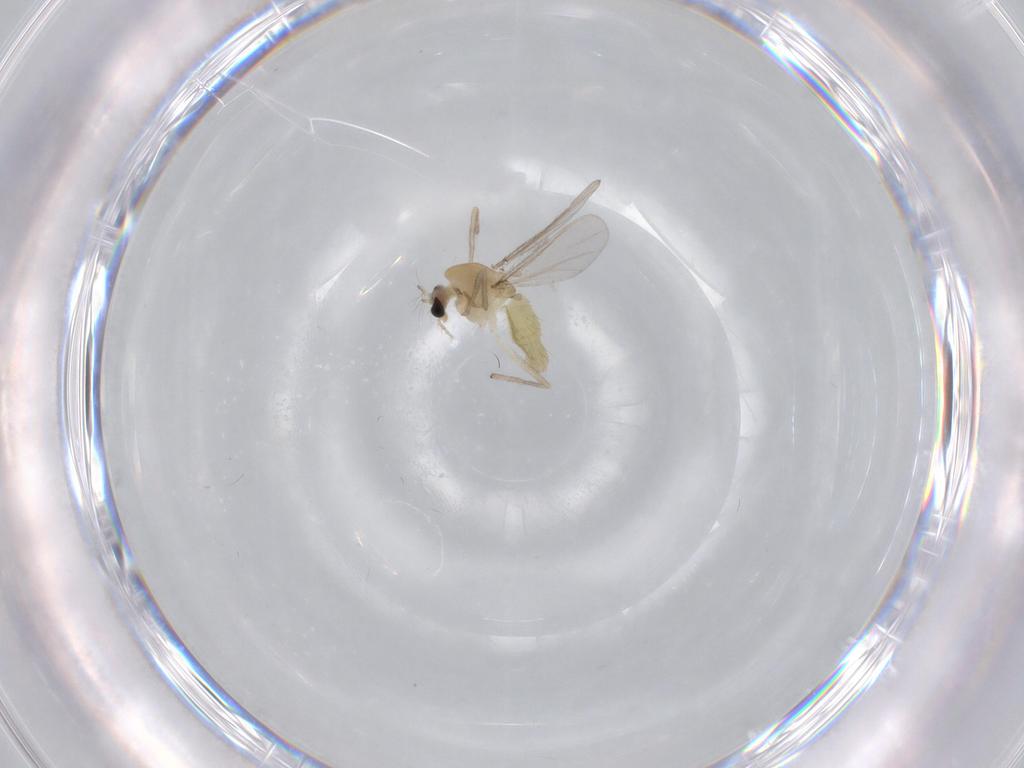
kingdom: Animalia
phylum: Arthropoda
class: Insecta
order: Diptera
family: Chironomidae
